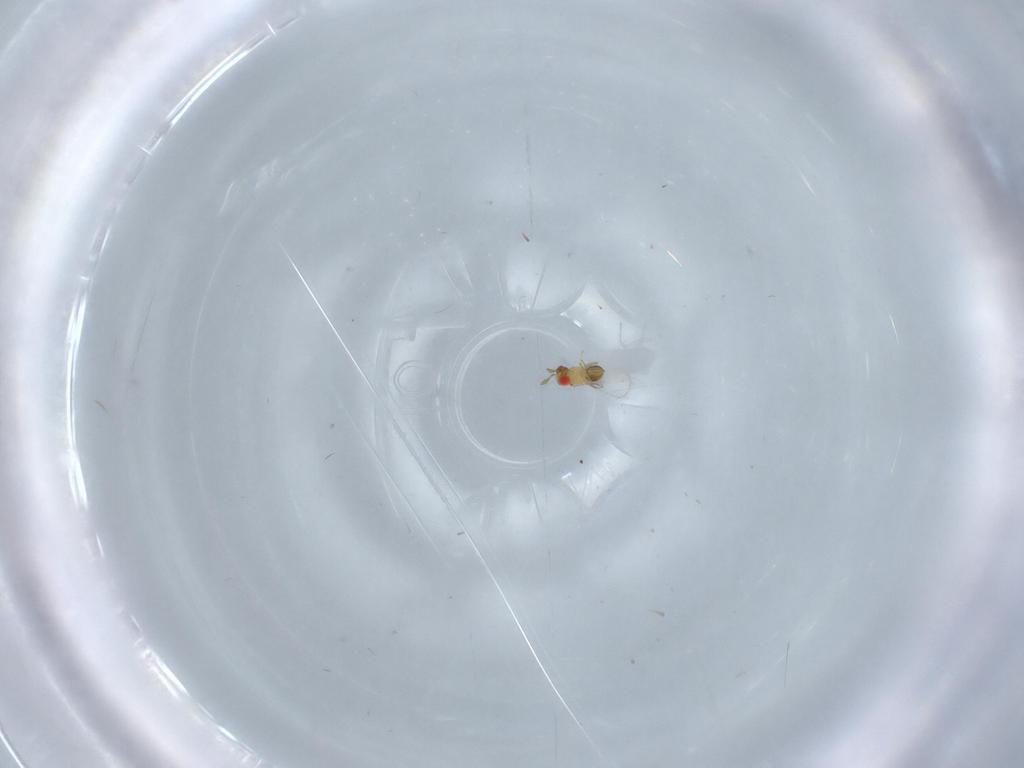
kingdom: Animalia
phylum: Arthropoda
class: Insecta
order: Hymenoptera
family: Trichogrammatidae
